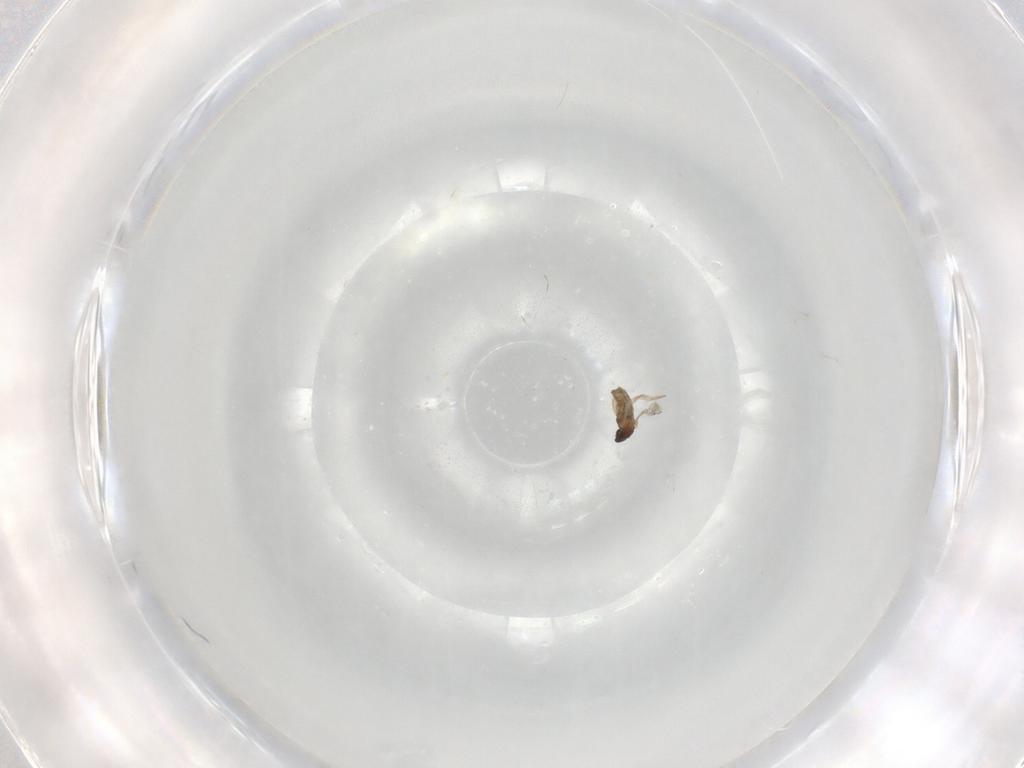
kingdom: Animalia
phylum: Arthropoda
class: Insecta
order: Diptera
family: Cecidomyiidae
